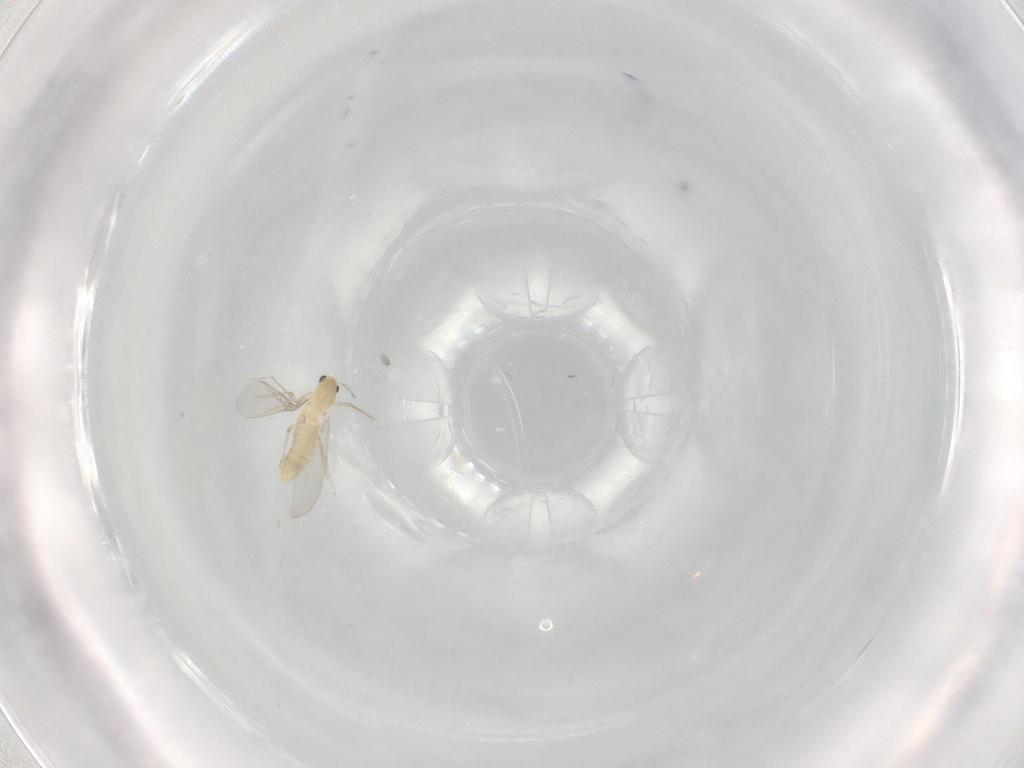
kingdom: Animalia
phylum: Arthropoda
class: Insecta
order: Diptera
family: Chironomidae
